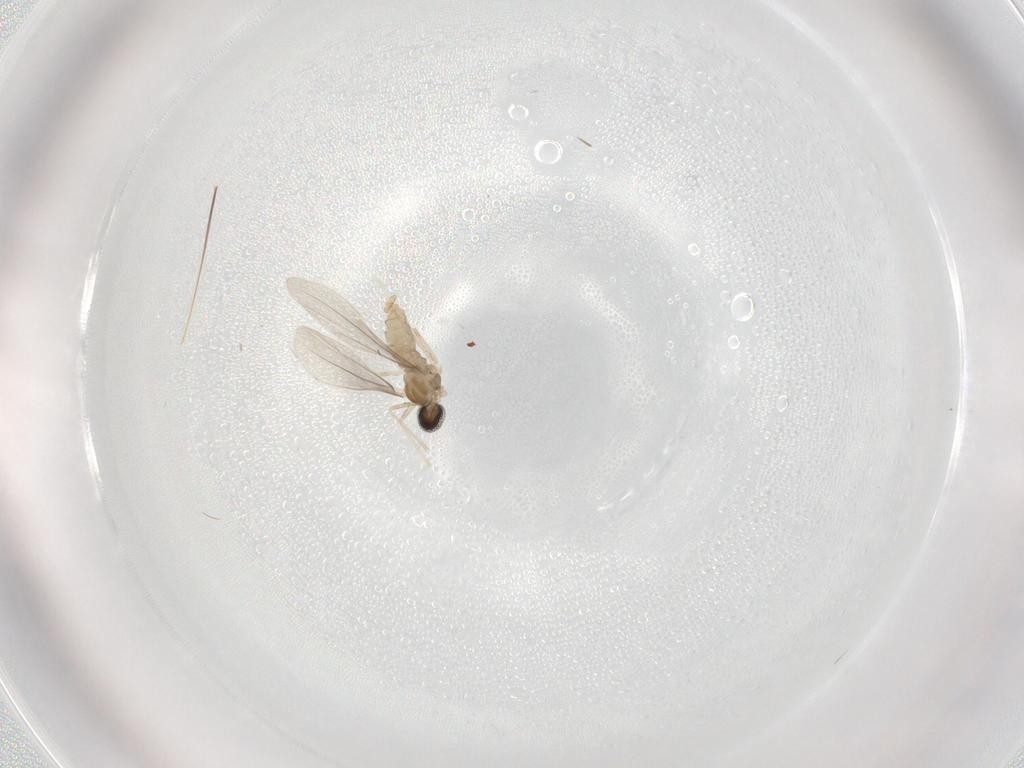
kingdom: Animalia
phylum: Arthropoda
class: Insecta
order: Diptera
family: Cecidomyiidae
